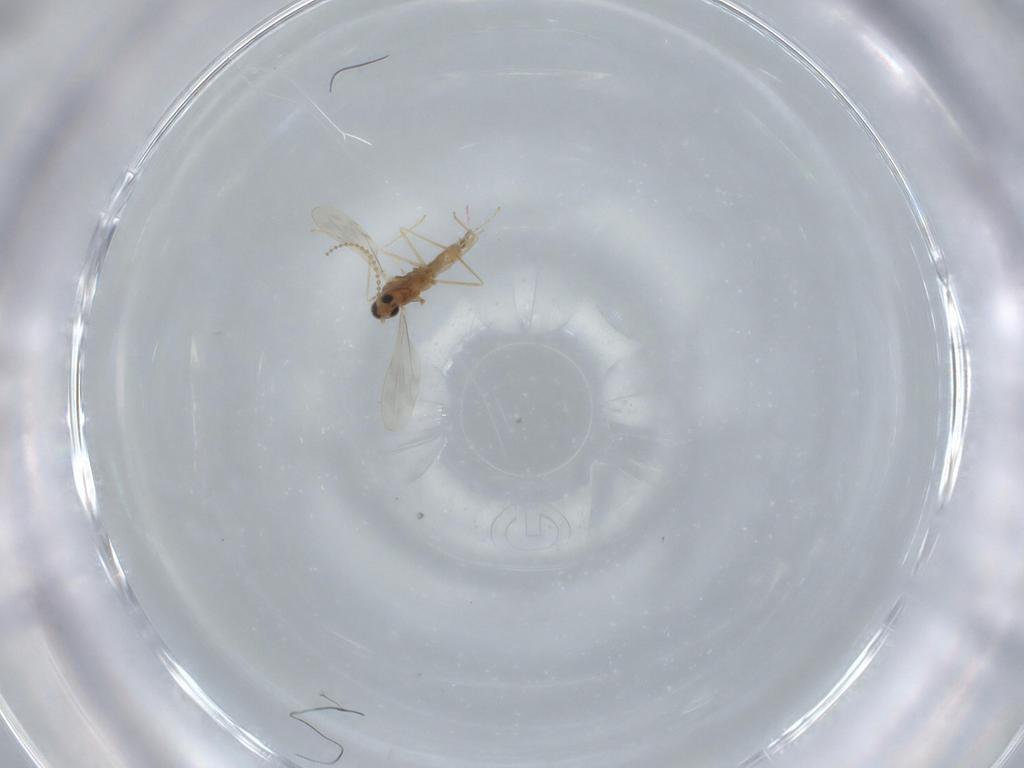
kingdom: Animalia
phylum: Arthropoda
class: Insecta
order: Diptera
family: Cecidomyiidae
